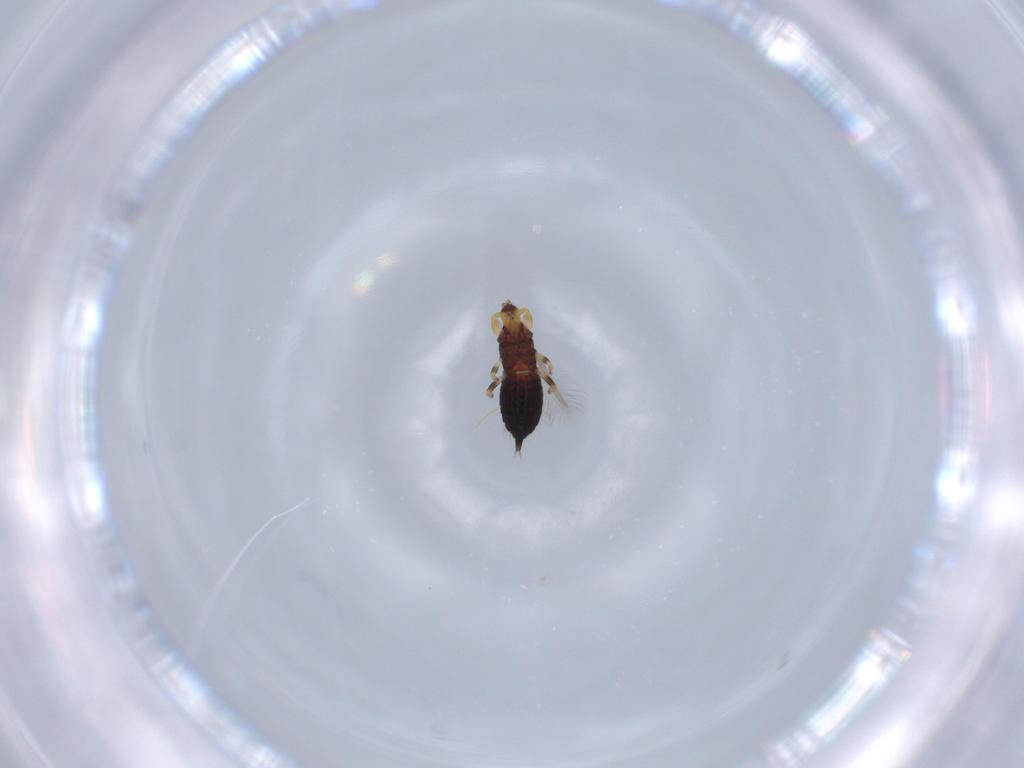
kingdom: Animalia
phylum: Arthropoda
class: Insecta
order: Thysanoptera
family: Phlaeothripidae
